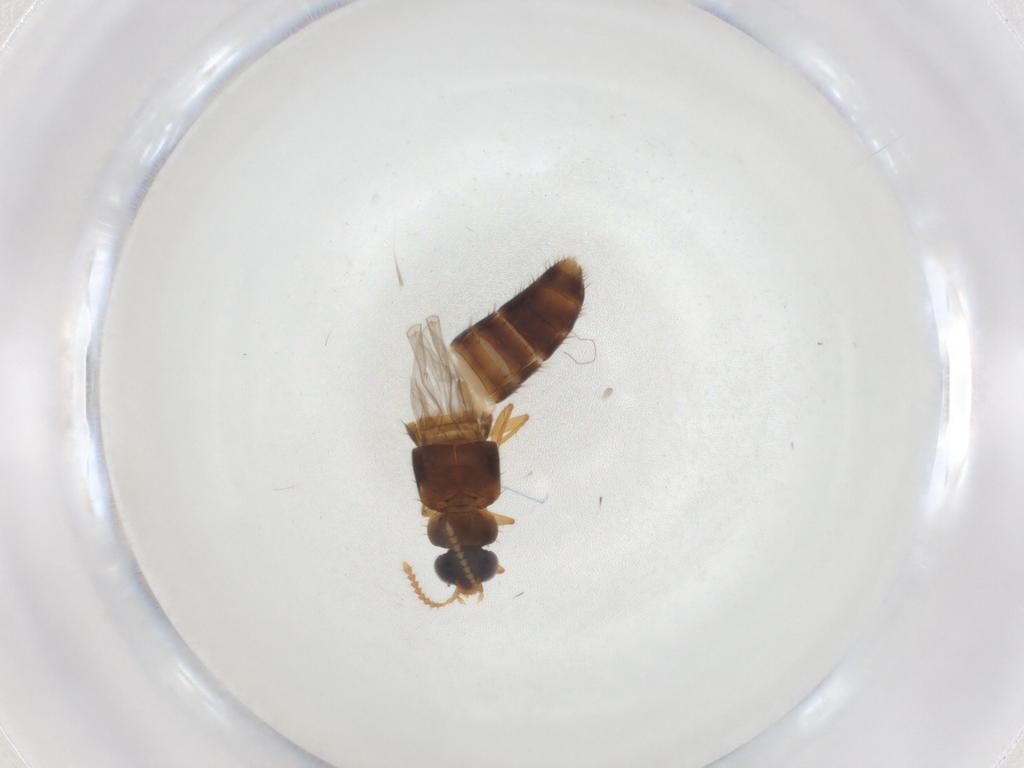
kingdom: Animalia
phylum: Arthropoda
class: Insecta
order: Coleoptera
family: Staphylinidae
